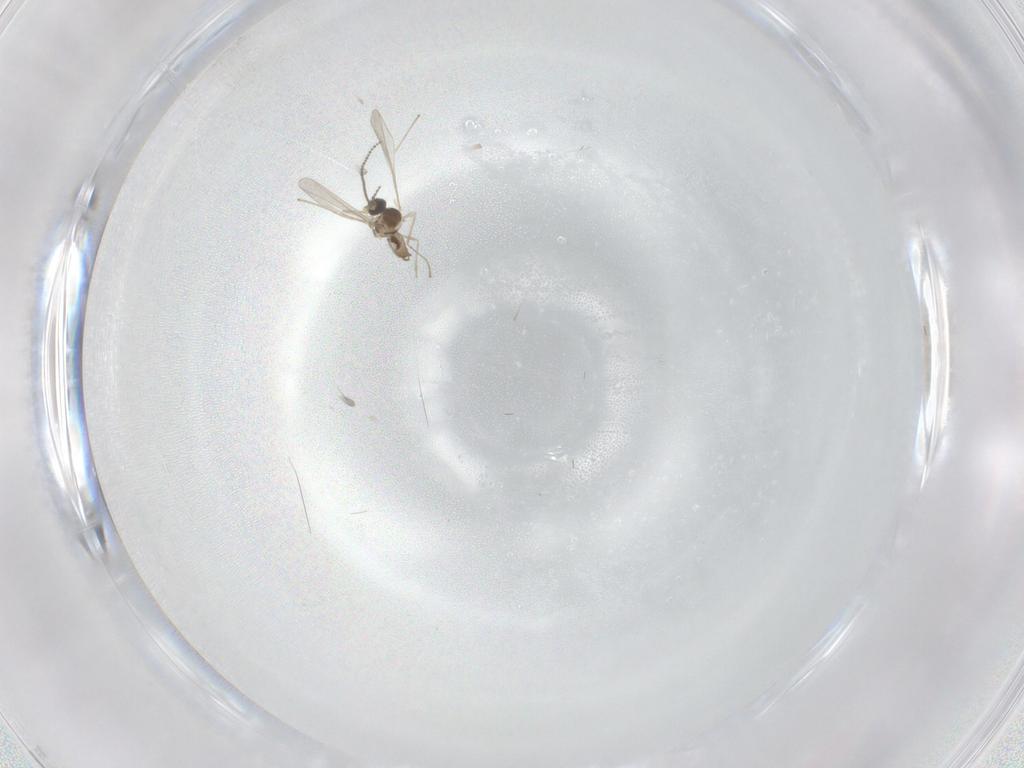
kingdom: Animalia
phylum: Arthropoda
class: Insecta
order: Diptera
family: Cecidomyiidae
